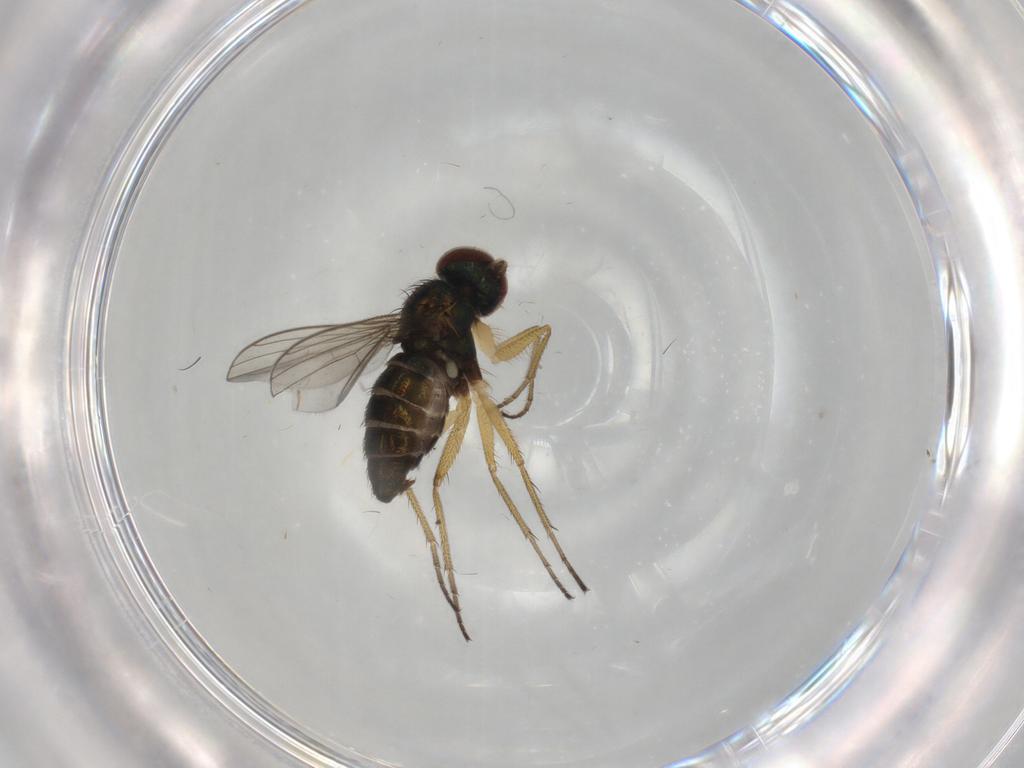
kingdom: Animalia
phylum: Arthropoda
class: Insecta
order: Diptera
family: Dolichopodidae
